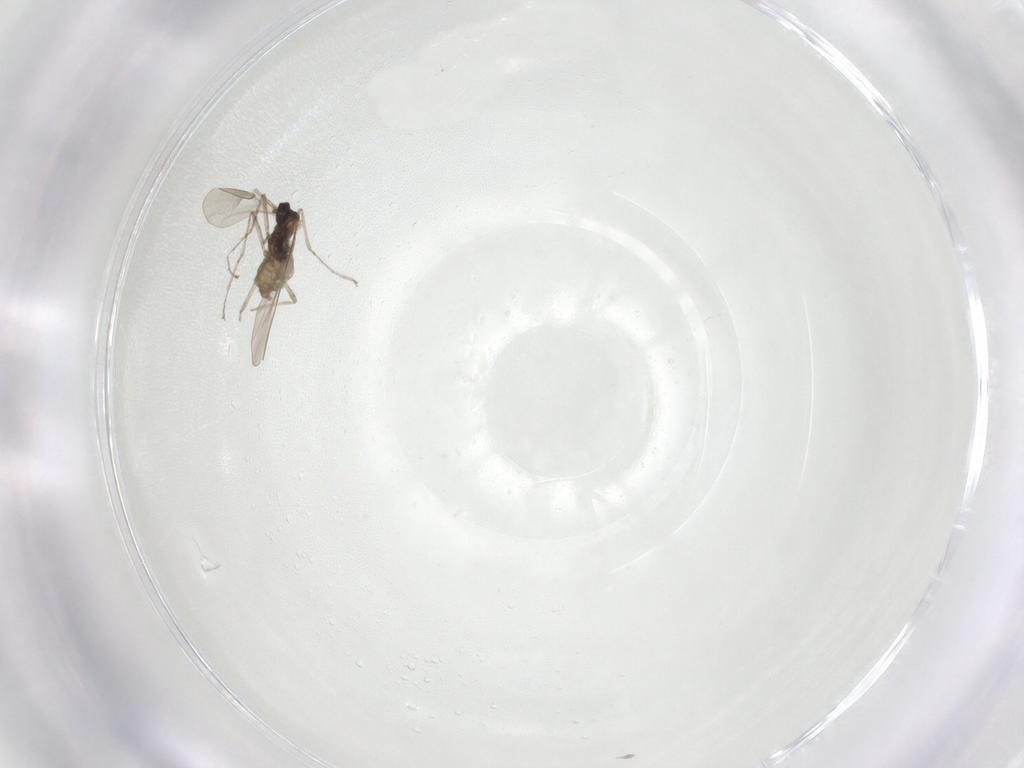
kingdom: Animalia
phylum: Arthropoda
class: Insecta
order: Diptera
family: Cecidomyiidae
